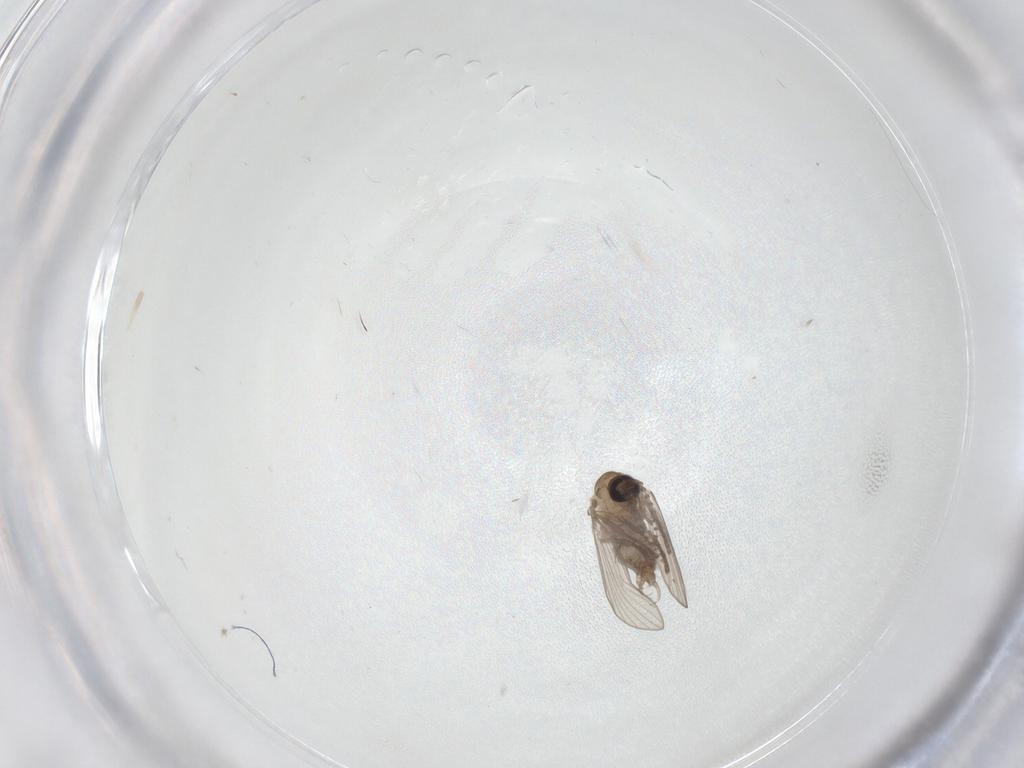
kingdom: Animalia
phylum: Arthropoda
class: Insecta
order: Diptera
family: Psychodidae
